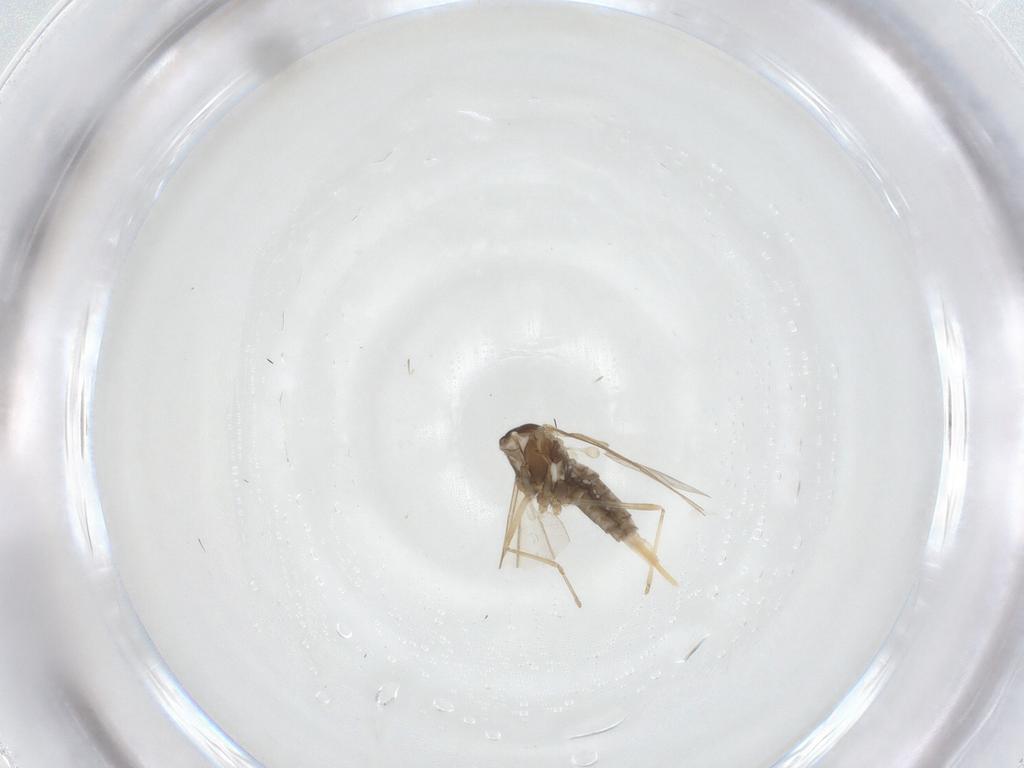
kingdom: Animalia
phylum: Arthropoda
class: Insecta
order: Diptera
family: Cecidomyiidae
